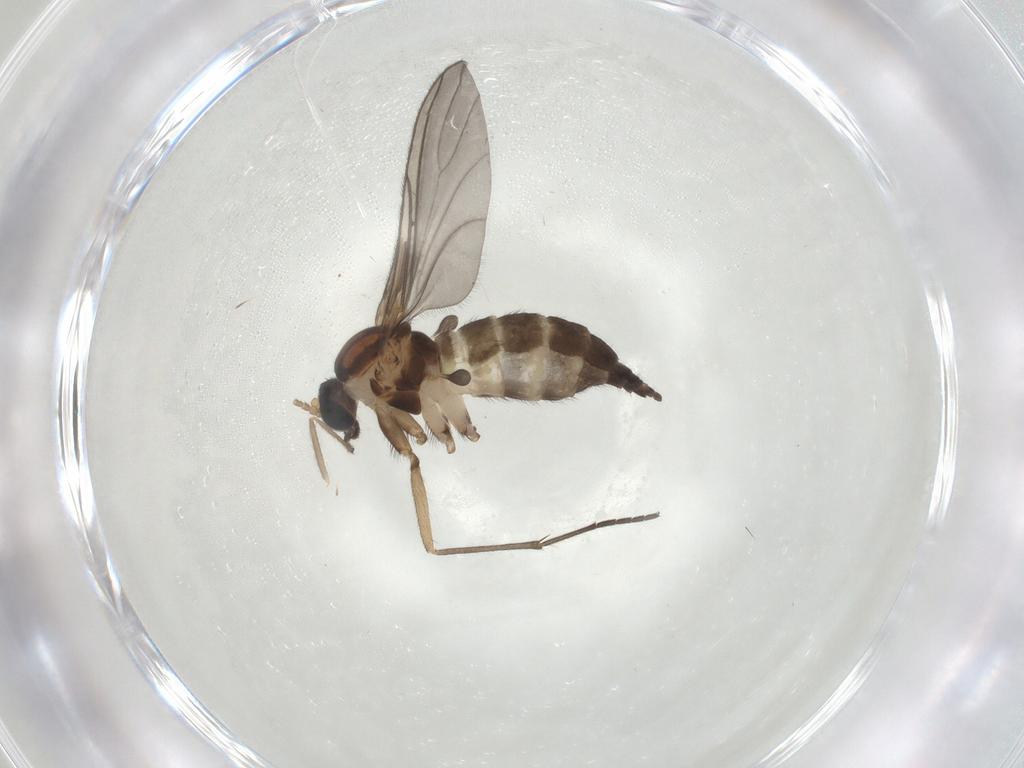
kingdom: Animalia
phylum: Arthropoda
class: Insecta
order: Diptera
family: Sciaridae
